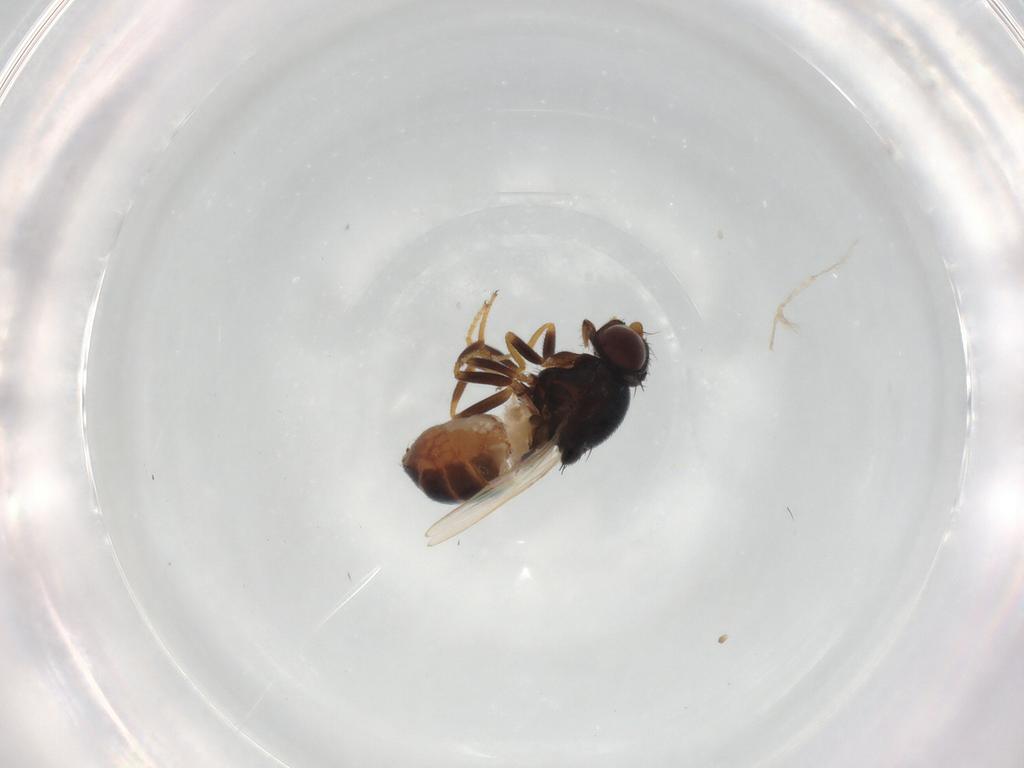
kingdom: Animalia
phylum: Arthropoda
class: Insecta
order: Diptera
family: Chloropidae
